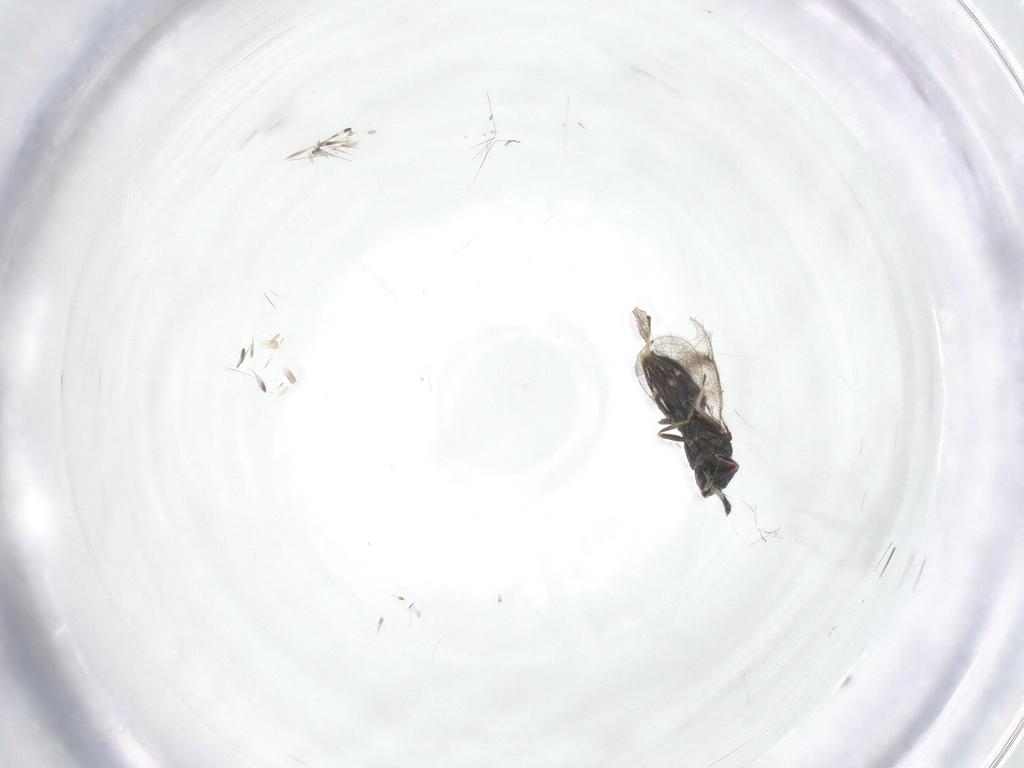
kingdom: Animalia
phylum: Arthropoda
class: Insecta
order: Hymenoptera
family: Eulophidae
